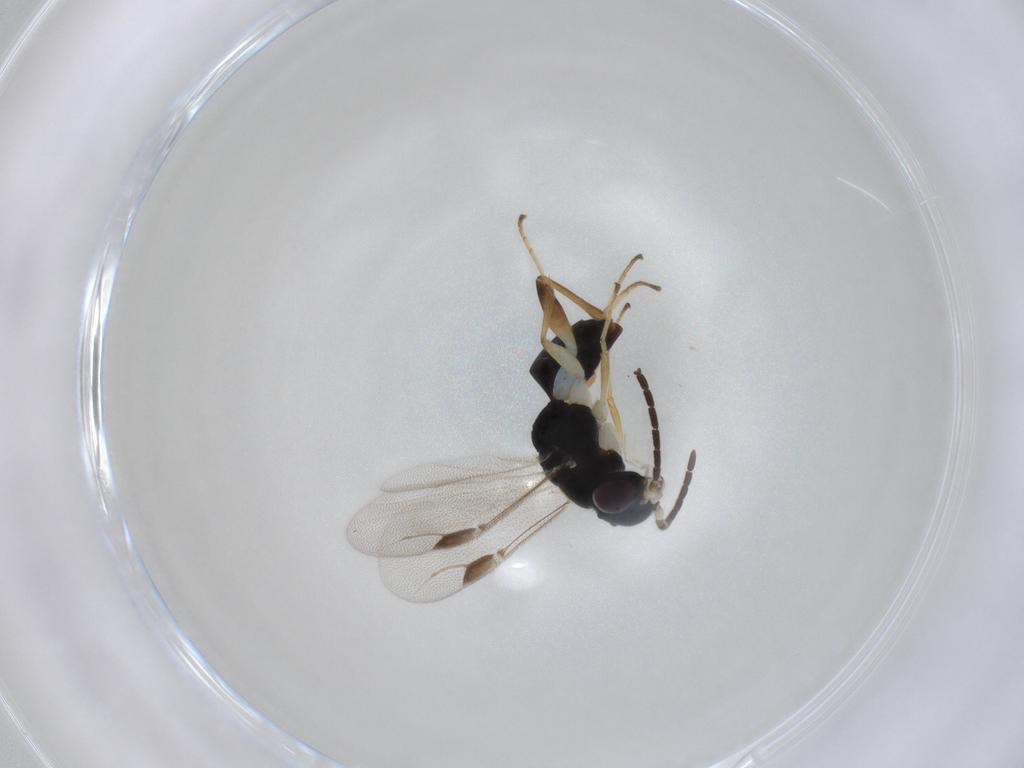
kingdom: Animalia
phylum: Arthropoda
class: Insecta
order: Hymenoptera
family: Dryinidae
